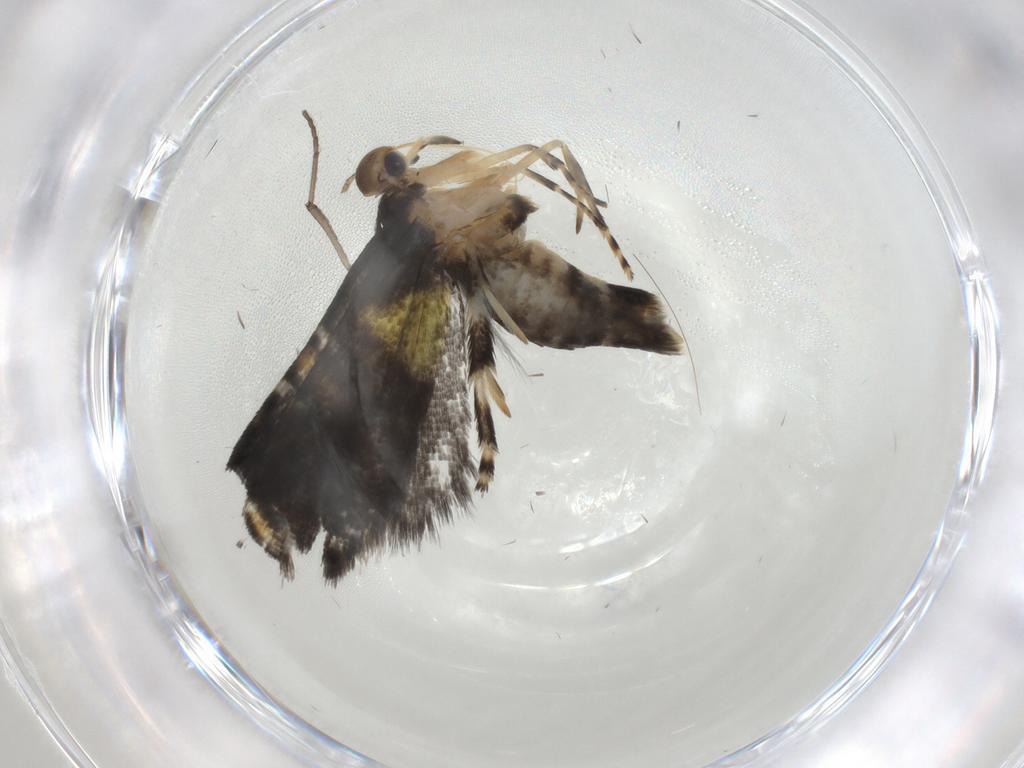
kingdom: Animalia
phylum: Arthropoda
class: Insecta
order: Lepidoptera
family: Glyphipterigidae
